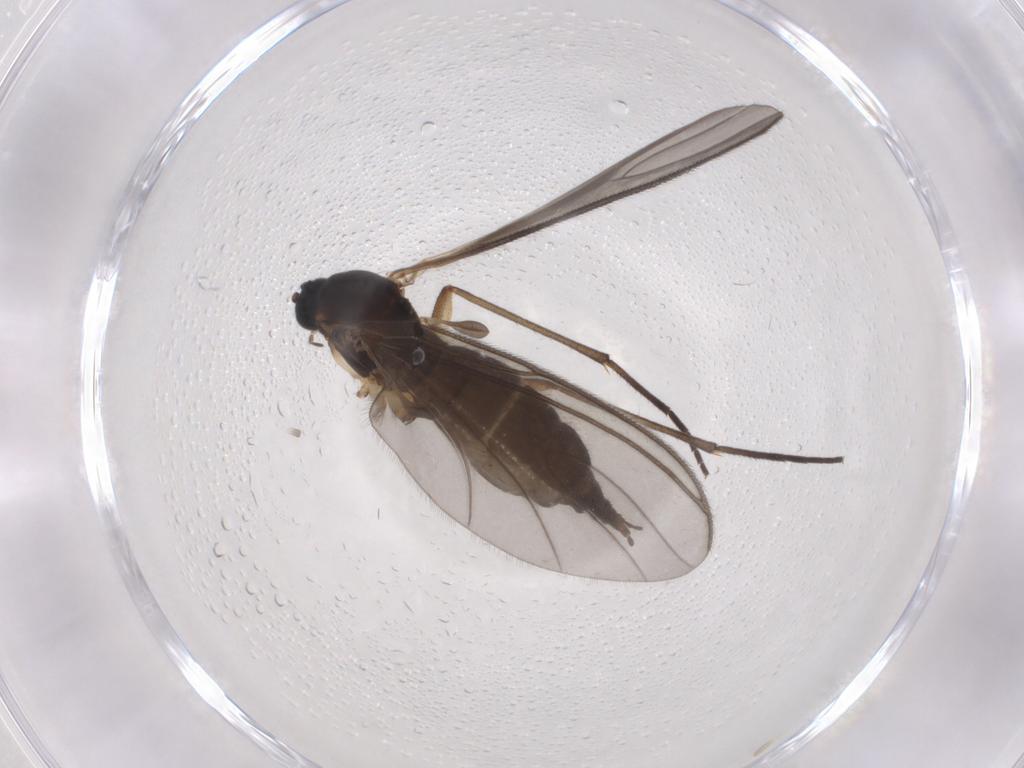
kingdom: Animalia
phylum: Arthropoda
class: Insecta
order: Diptera
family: Sciaridae
